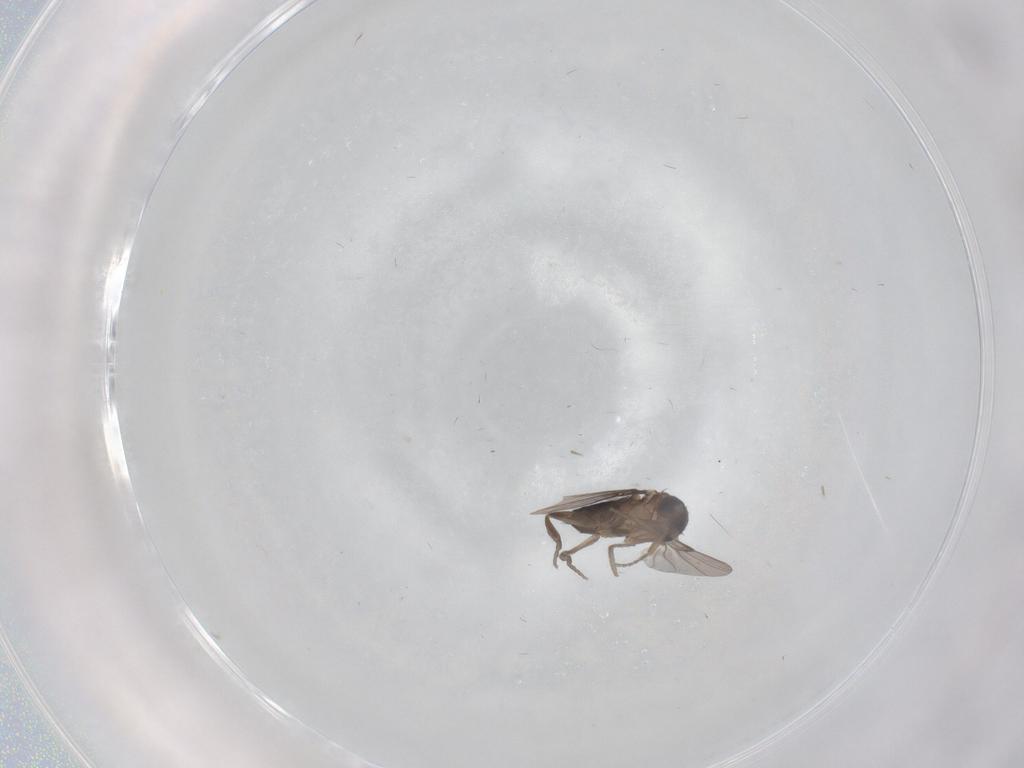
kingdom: Animalia
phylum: Arthropoda
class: Insecta
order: Diptera
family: Phoridae
